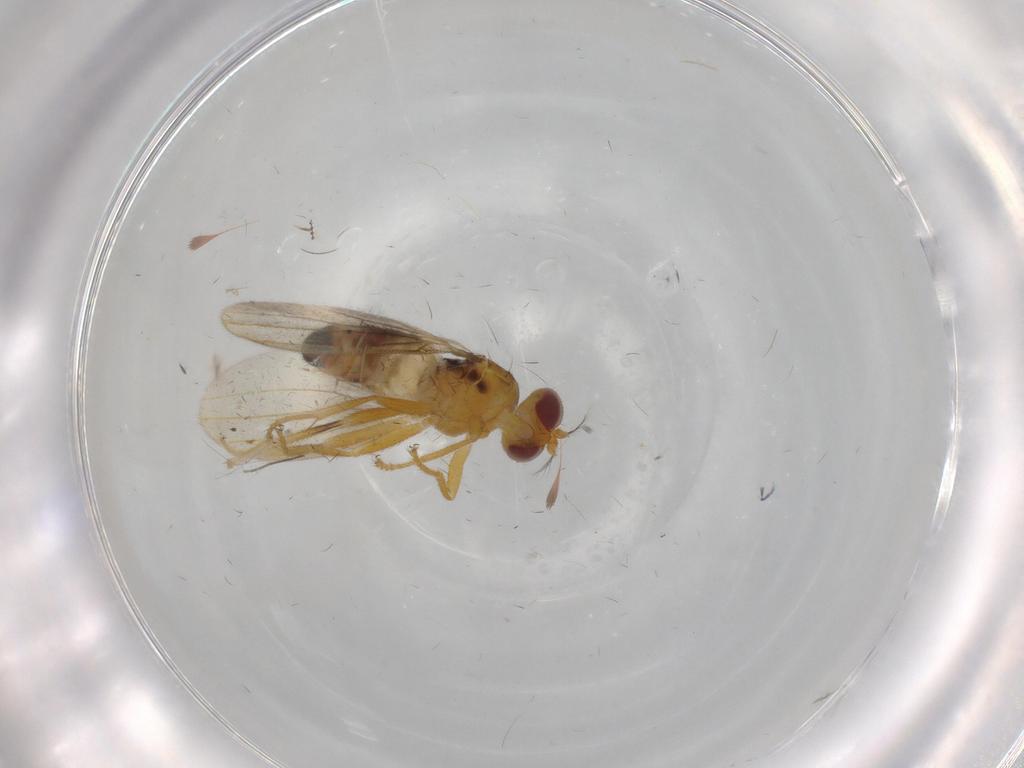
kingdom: Animalia
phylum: Arthropoda
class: Insecta
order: Diptera
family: Periscelididae
